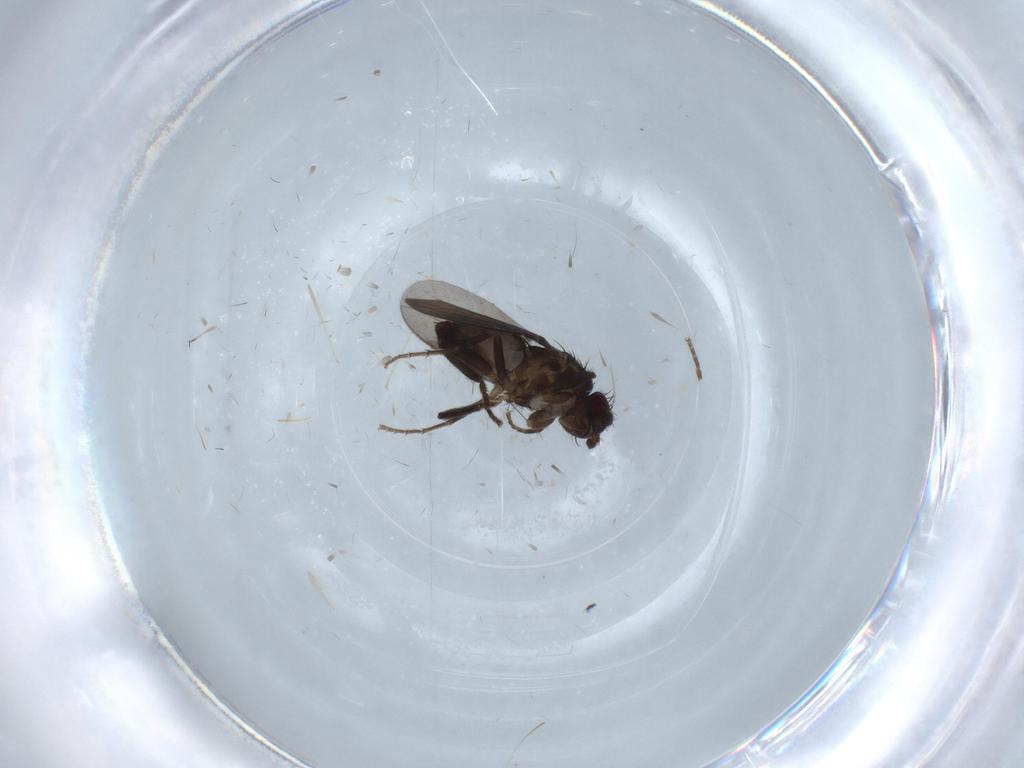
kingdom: Animalia
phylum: Arthropoda
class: Insecta
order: Diptera
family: Sphaeroceridae
